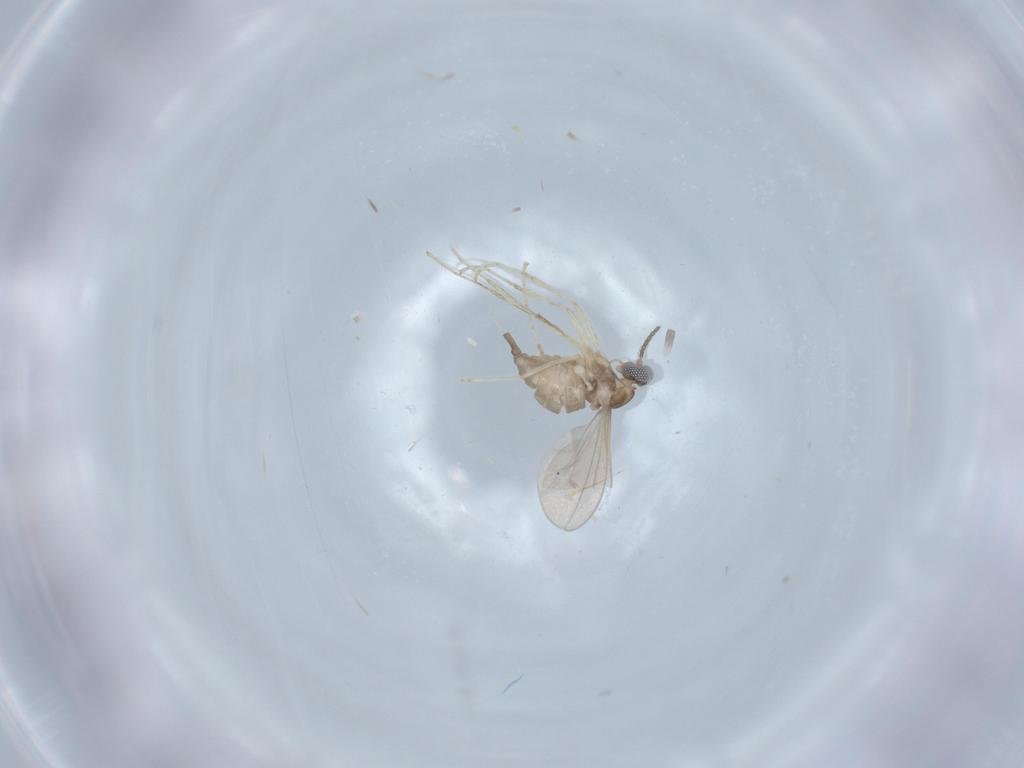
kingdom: Animalia
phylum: Arthropoda
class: Insecta
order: Diptera
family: Cecidomyiidae
